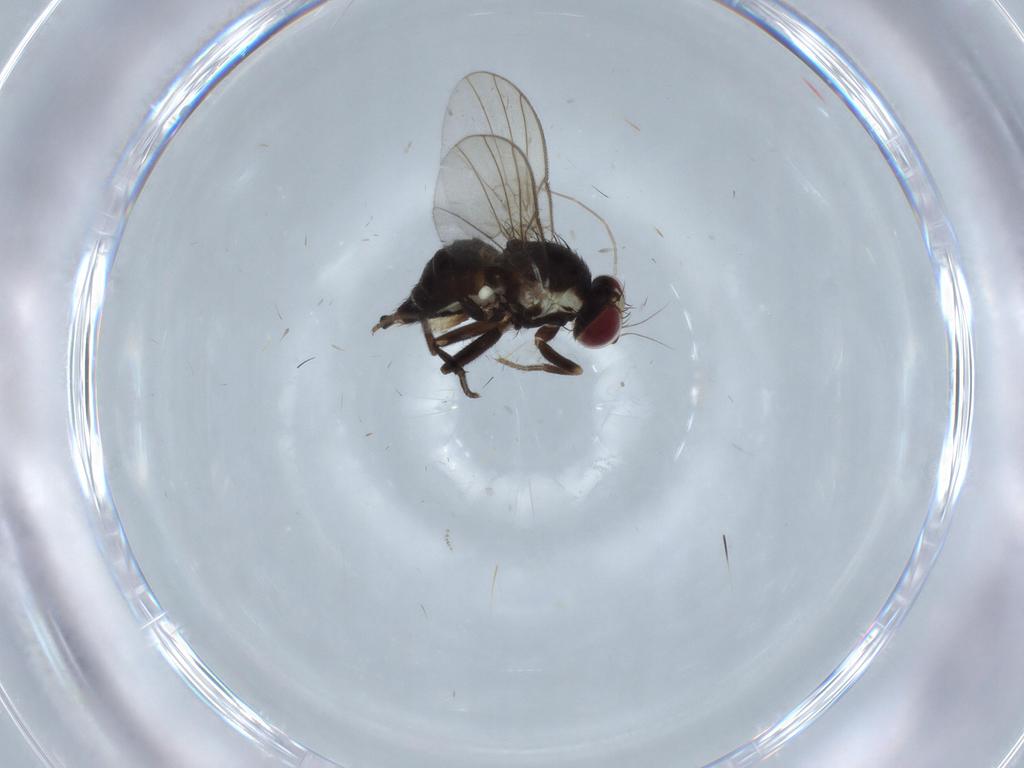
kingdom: Animalia
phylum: Arthropoda
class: Insecta
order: Diptera
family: Agromyzidae
